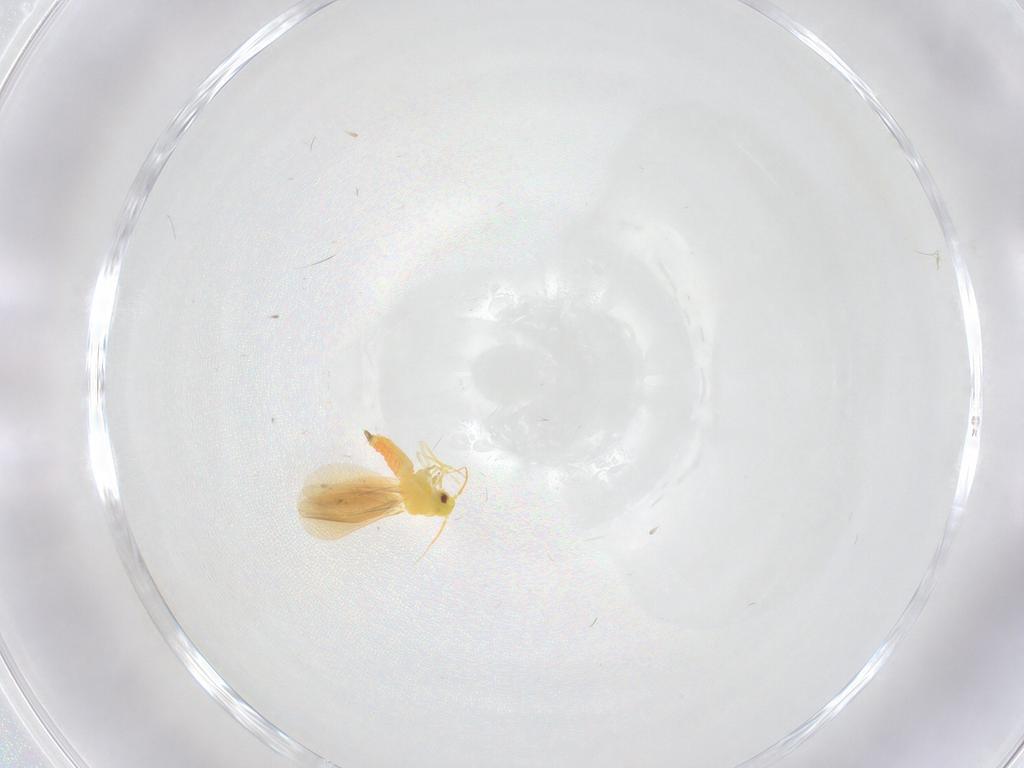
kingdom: Animalia
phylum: Arthropoda
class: Insecta
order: Hemiptera
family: Aleyrodidae
